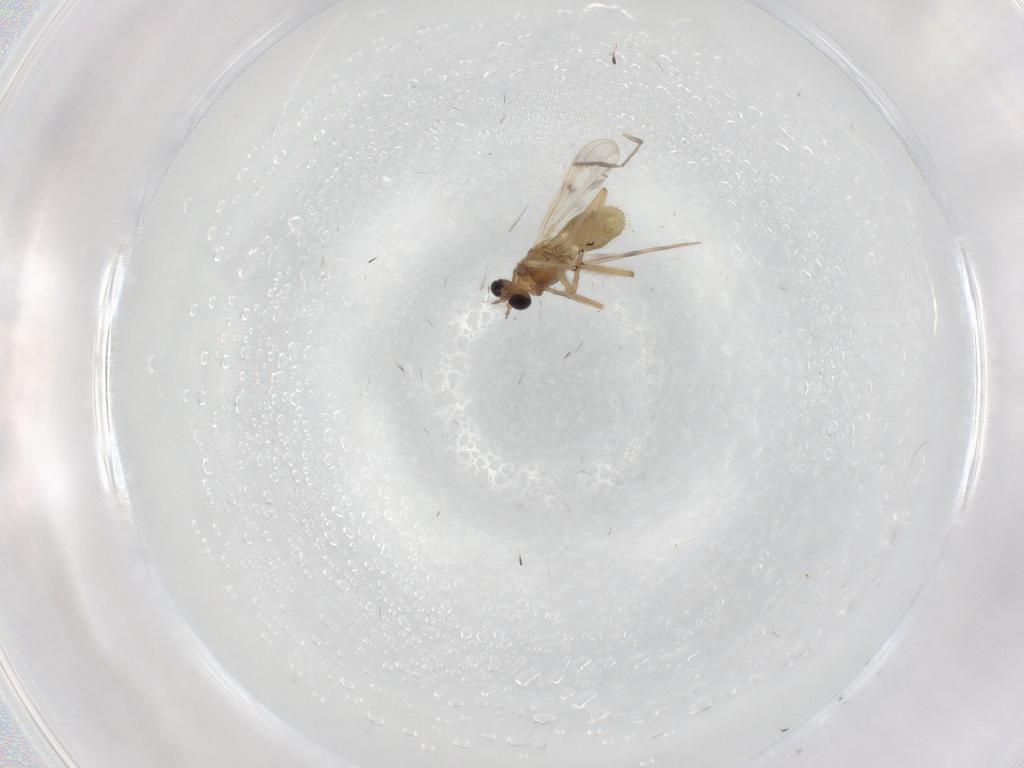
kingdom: Animalia
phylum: Arthropoda
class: Insecta
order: Diptera
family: Chironomidae
